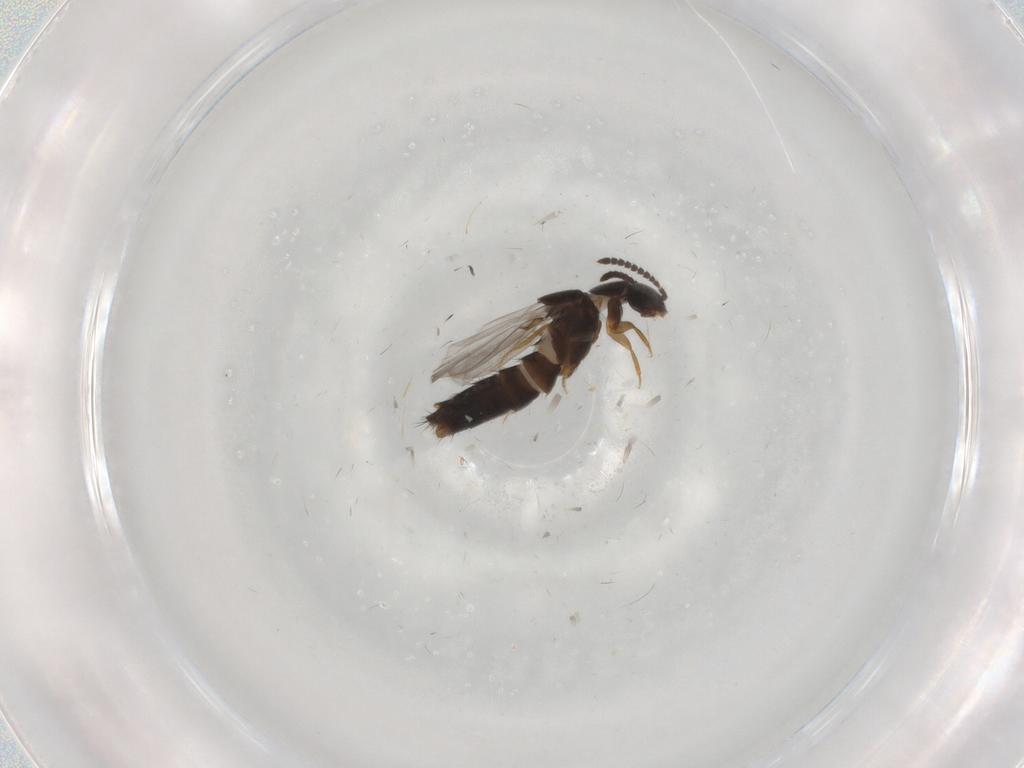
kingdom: Animalia
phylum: Arthropoda
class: Insecta
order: Coleoptera
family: Staphylinidae
